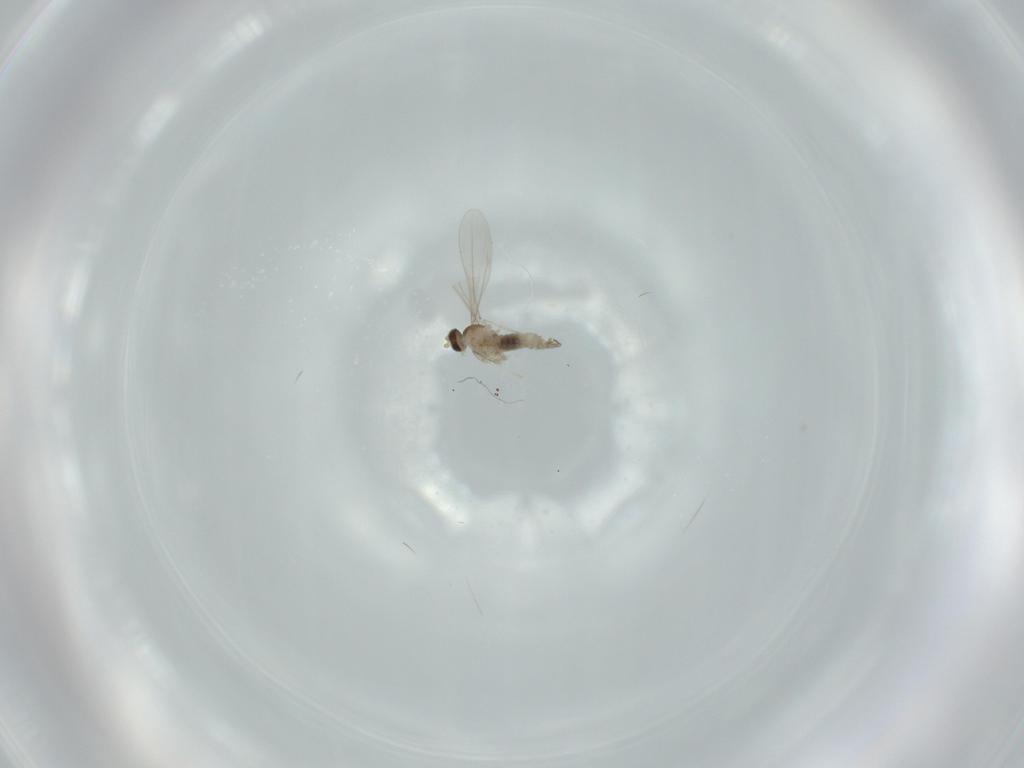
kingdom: Animalia
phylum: Arthropoda
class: Insecta
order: Diptera
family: Cecidomyiidae
